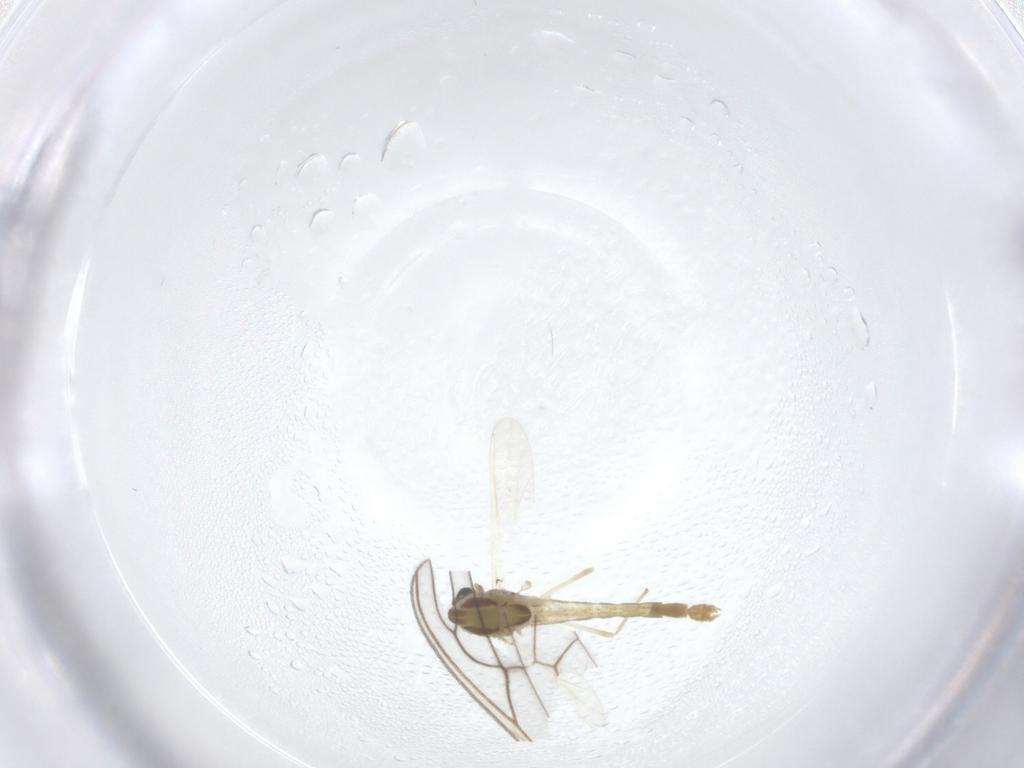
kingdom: Animalia
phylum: Arthropoda
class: Insecta
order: Diptera
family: Chironomidae
